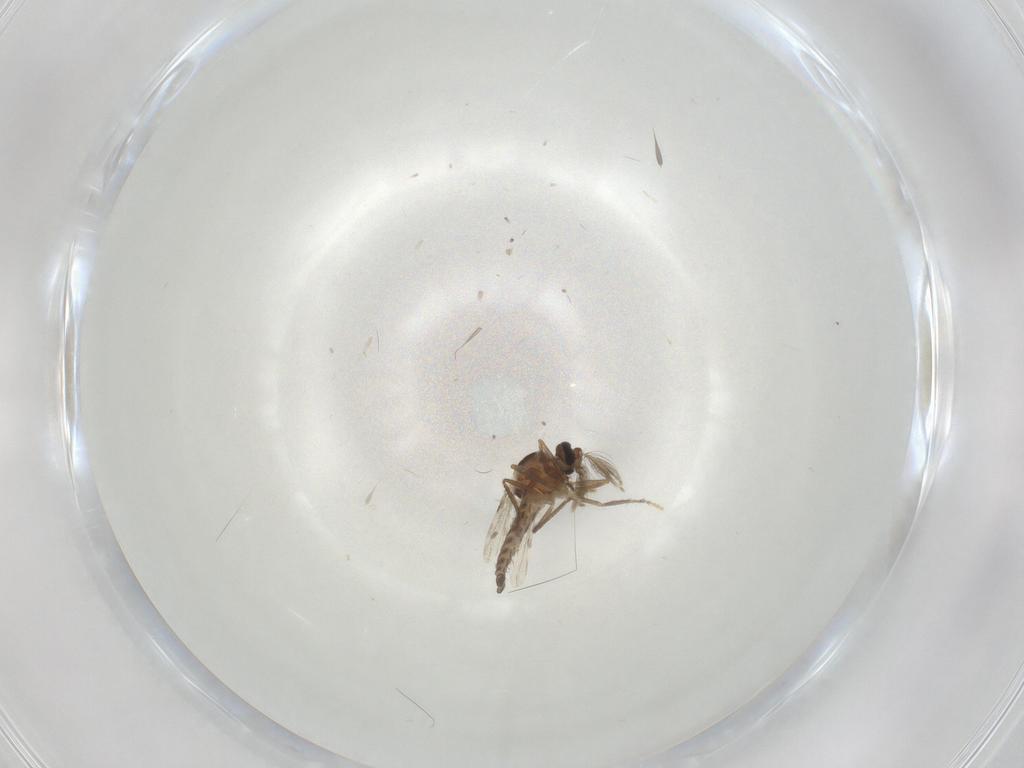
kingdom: Animalia
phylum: Arthropoda
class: Insecta
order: Diptera
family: Ceratopogonidae
